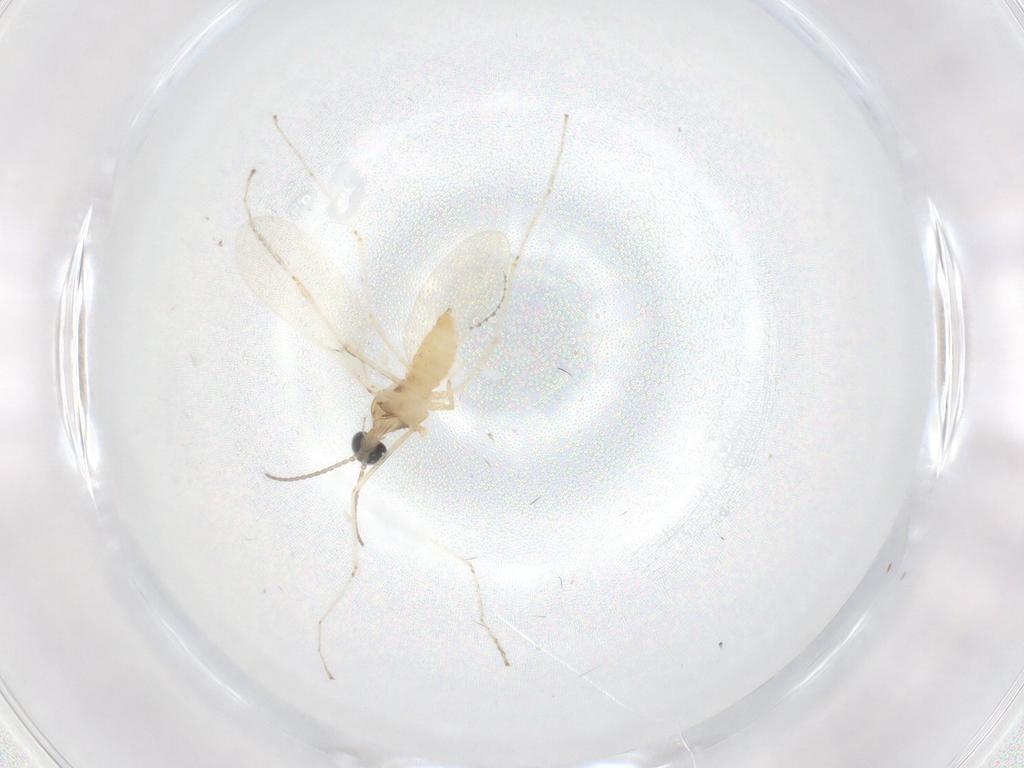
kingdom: Animalia
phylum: Arthropoda
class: Insecta
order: Diptera
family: Cecidomyiidae
